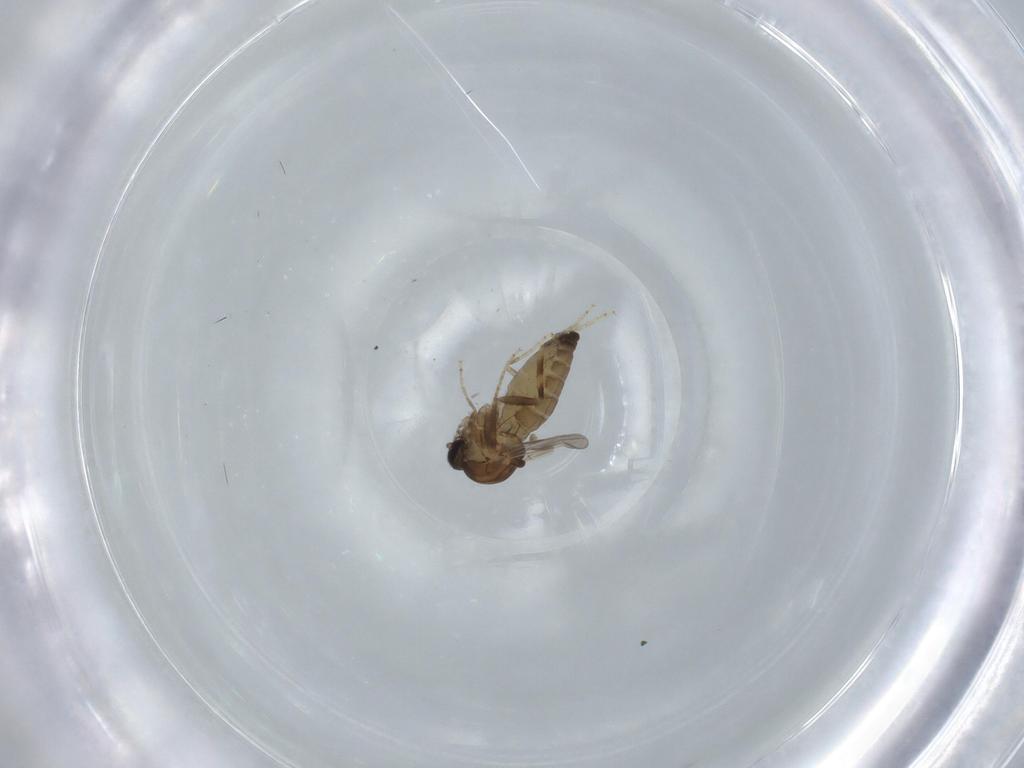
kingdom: Animalia
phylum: Arthropoda
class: Insecta
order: Diptera
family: Ceratopogonidae
